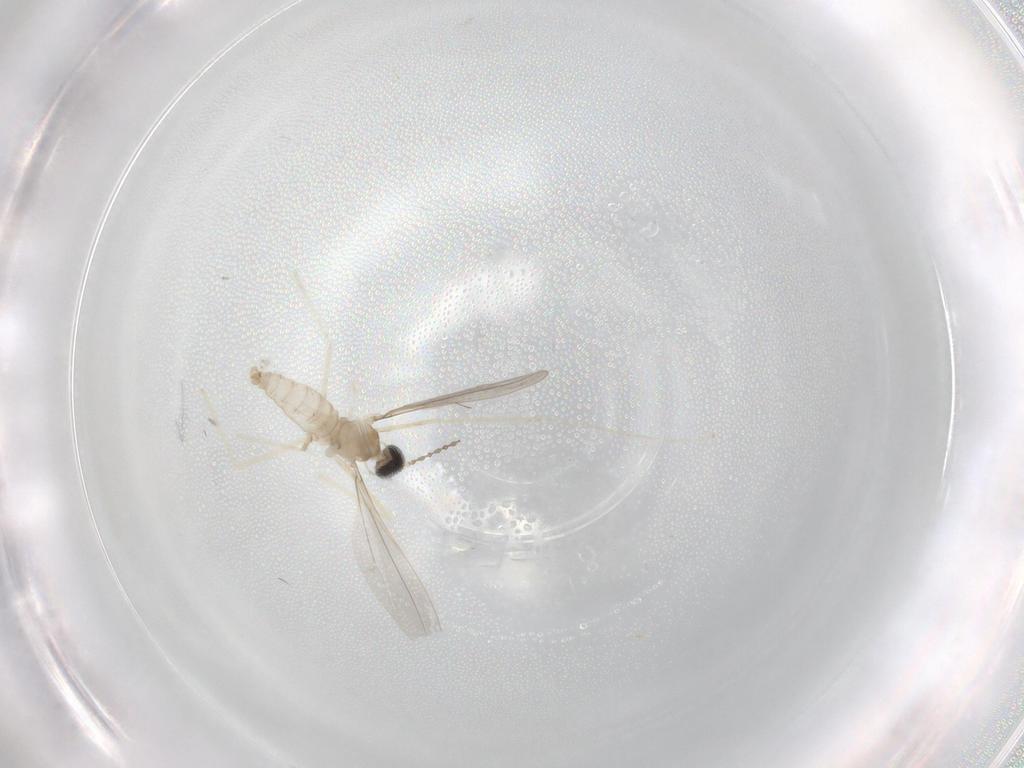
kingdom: Animalia
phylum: Arthropoda
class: Insecta
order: Diptera
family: Cecidomyiidae
